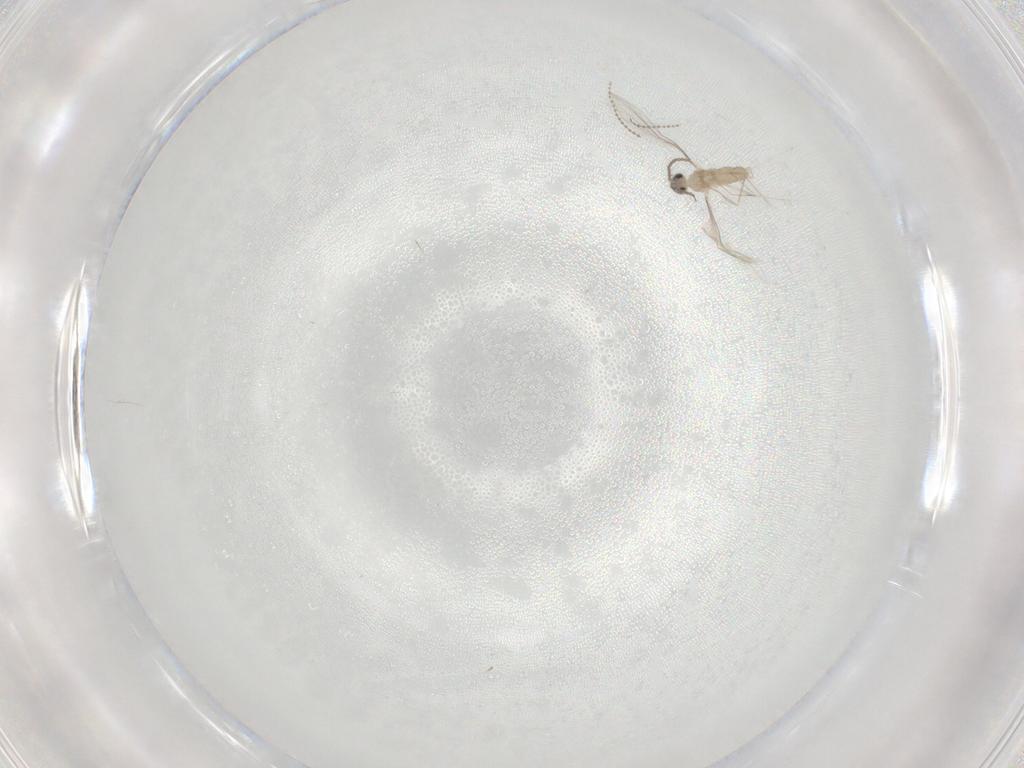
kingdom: Animalia
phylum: Arthropoda
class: Insecta
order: Diptera
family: Cecidomyiidae
